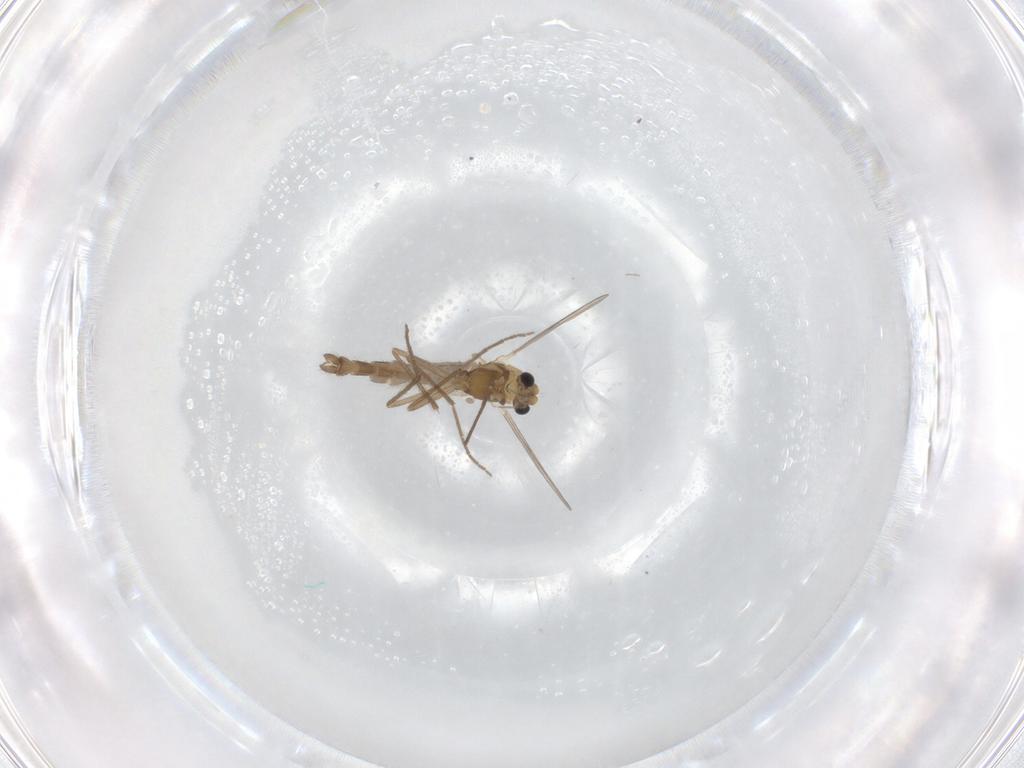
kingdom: Animalia
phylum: Arthropoda
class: Insecta
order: Diptera
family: Chironomidae
